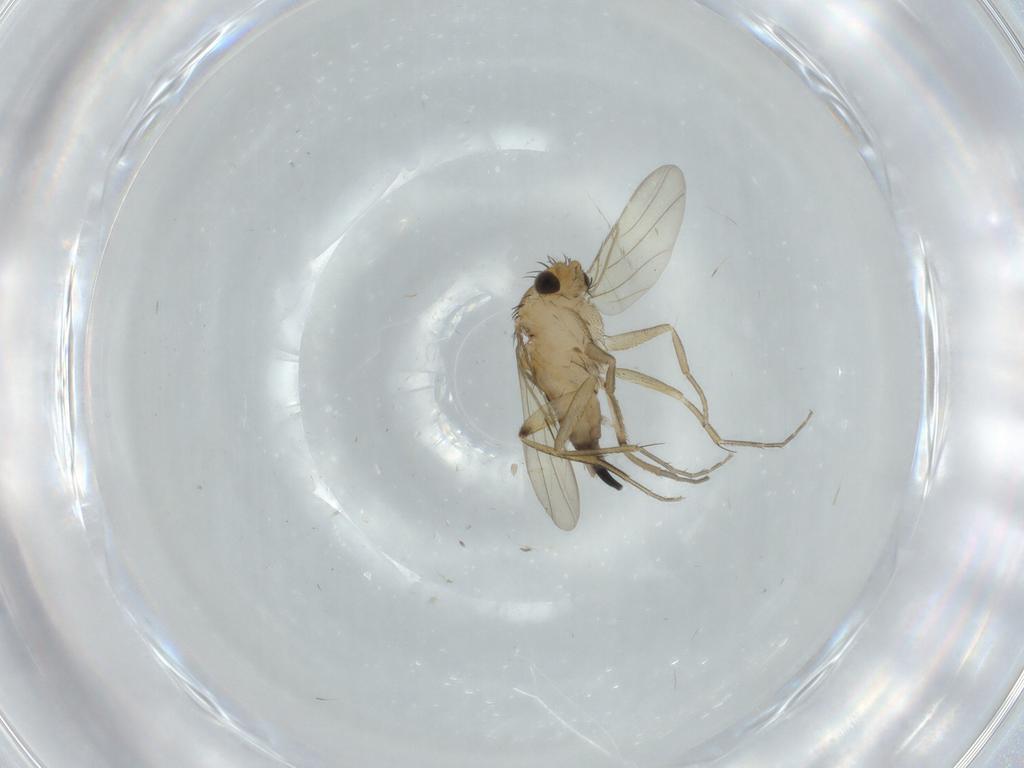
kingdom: Animalia
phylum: Arthropoda
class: Insecta
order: Diptera
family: Phoridae
